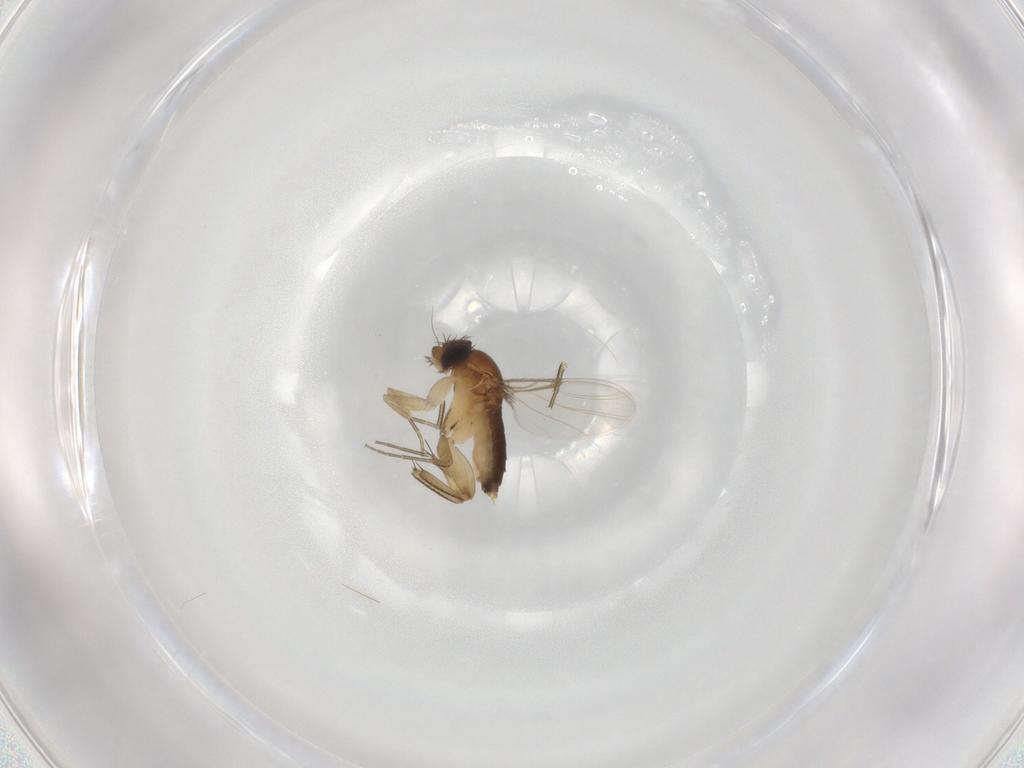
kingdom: Animalia
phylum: Arthropoda
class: Insecta
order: Diptera
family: Phoridae
